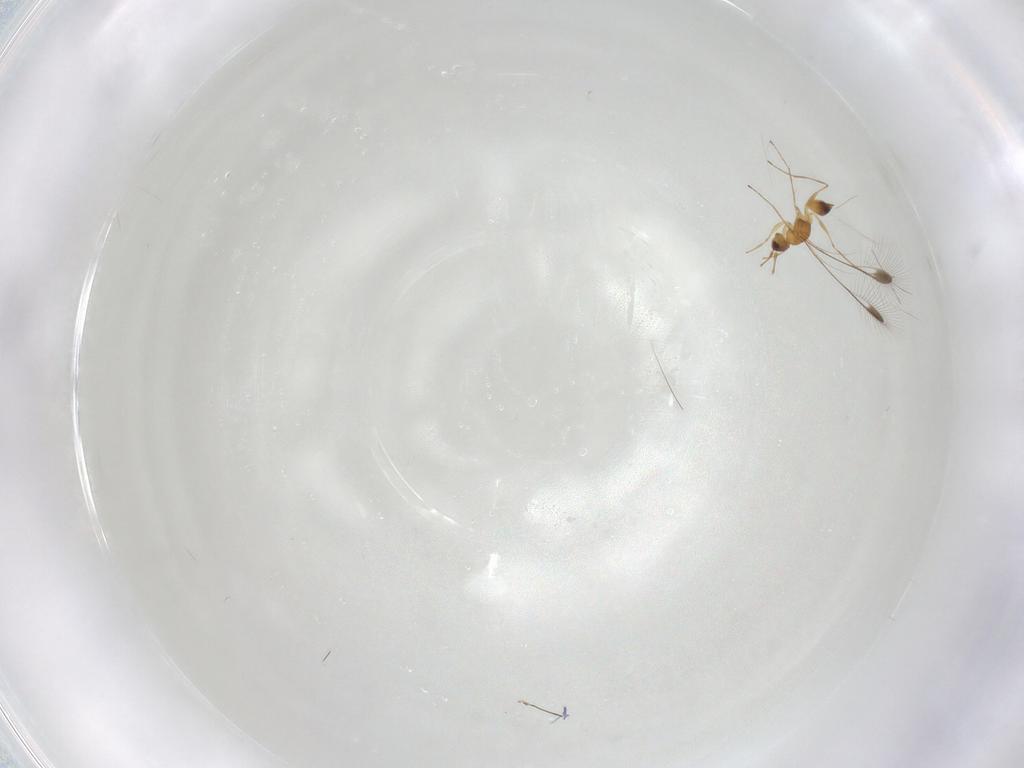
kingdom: Animalia
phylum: Arthropoda
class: Insecta
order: Hymenoptera
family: Mymaridae
